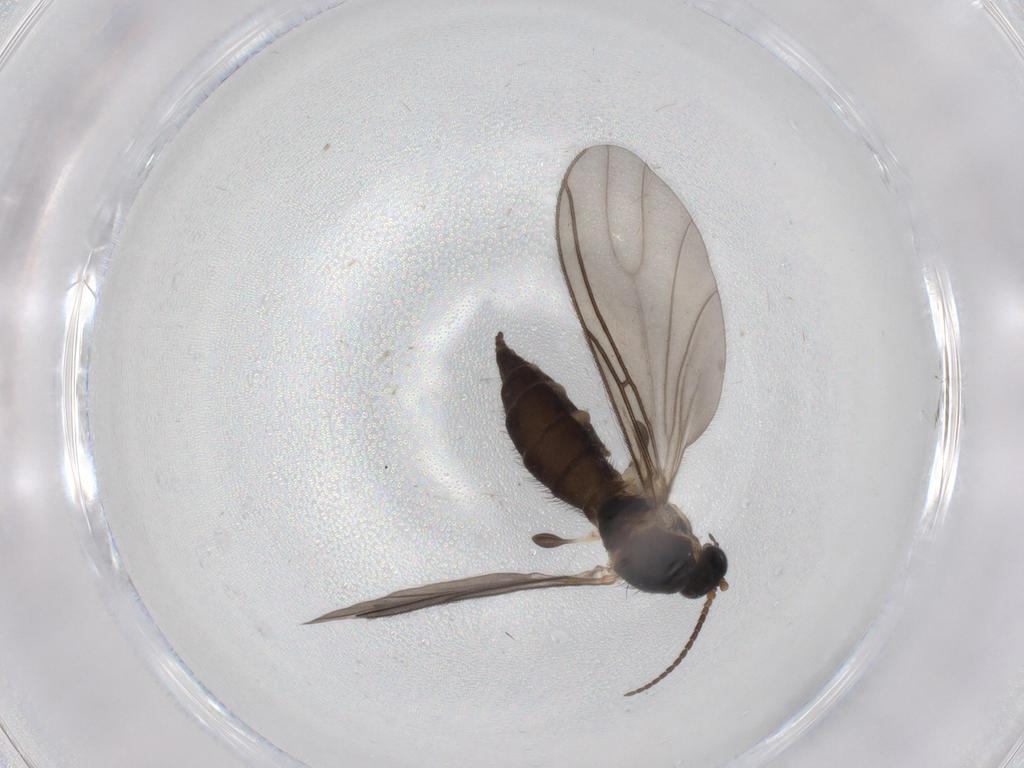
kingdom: Animalia
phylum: Arthropoda
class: Insecta
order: Diptera
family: Sciaridae
